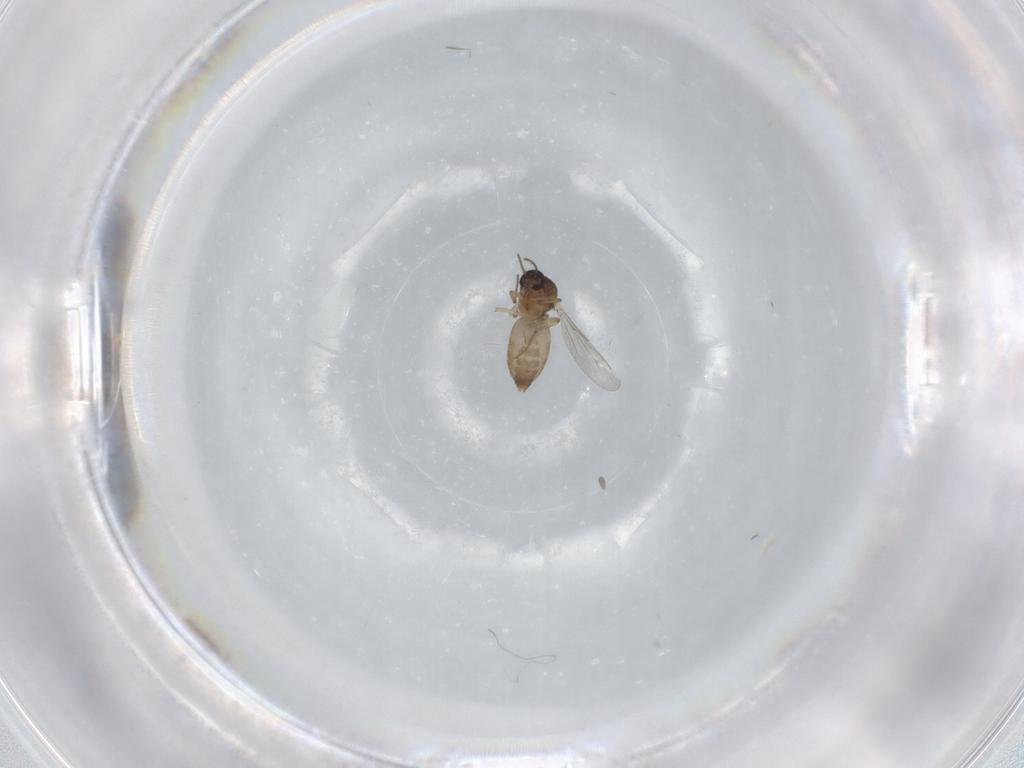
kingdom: Animalia
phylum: Arthropoda
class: Insecta
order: Diptera
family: Ceratopogonidae
